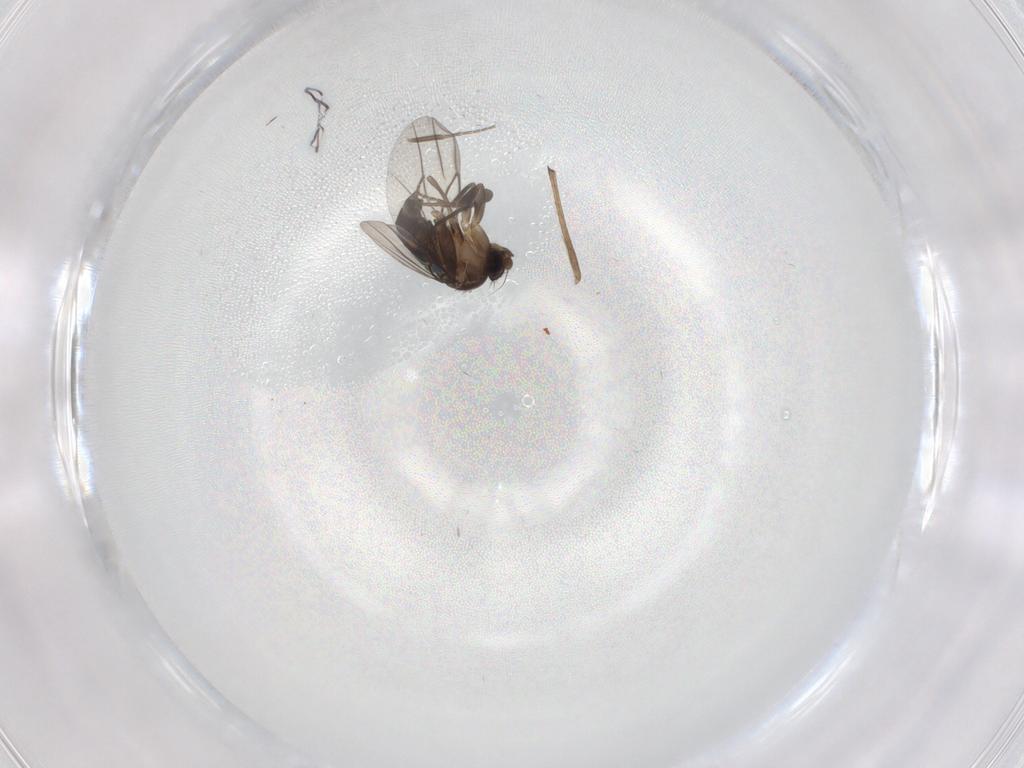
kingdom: Animalia
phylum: Arthropoda
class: Insecta
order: Diptera
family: Phoridae
